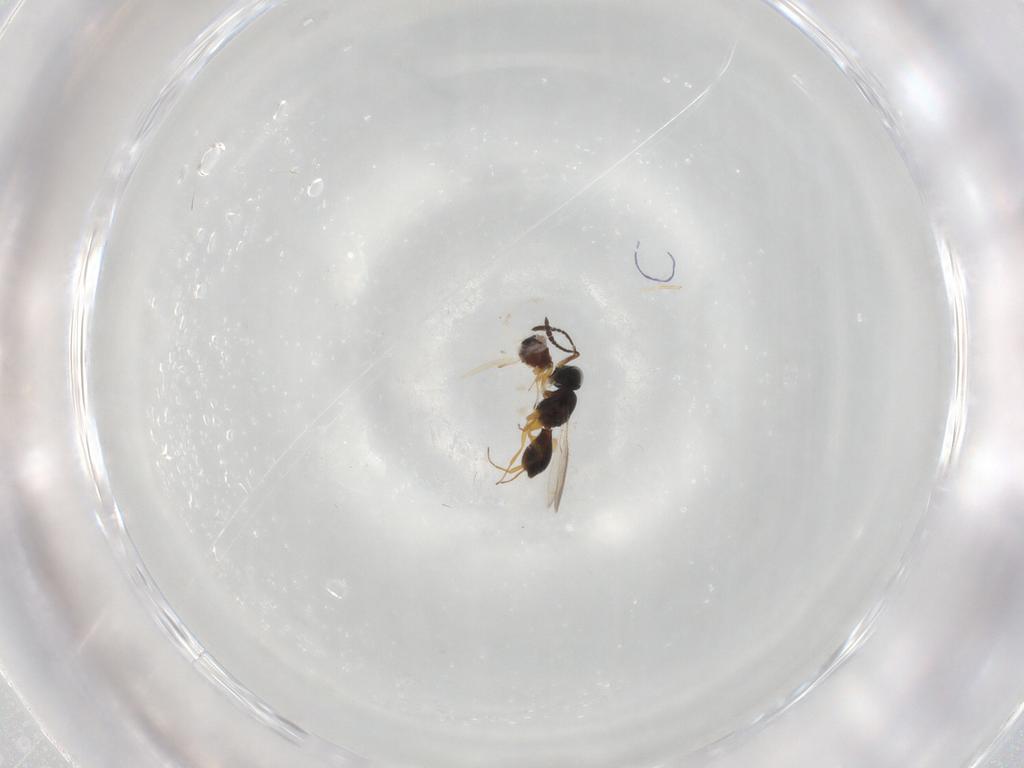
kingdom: Animalia
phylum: Arthropoda
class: Insecta
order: Hymenoptera
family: Scelionidae
